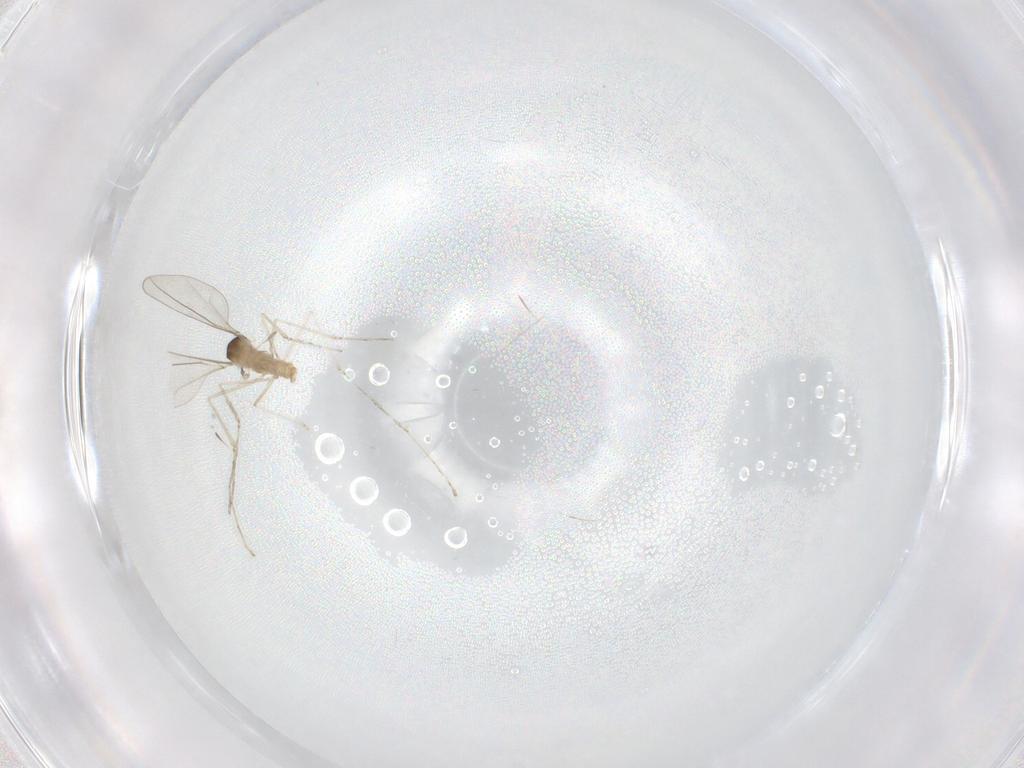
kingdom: Animalia
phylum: Arthropoda
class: Insecta
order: Diptera
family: Cecidomyiidae
